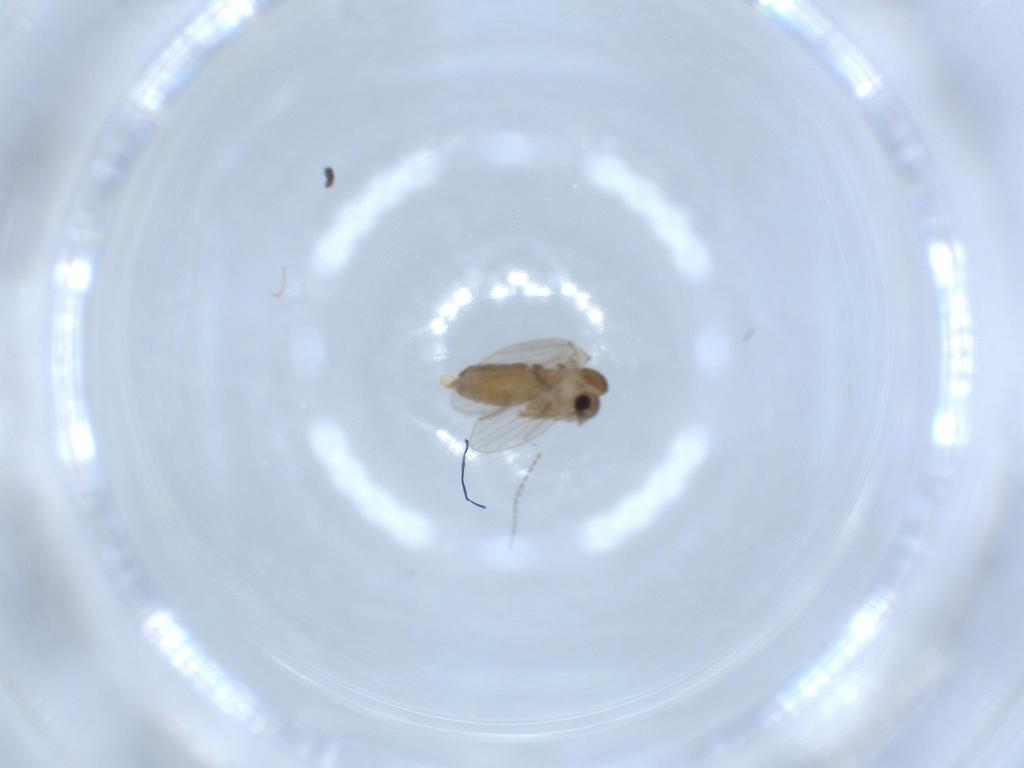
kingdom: Animalia
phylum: Arthropoda
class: Insecta
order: Diptera
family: Psychodidae
